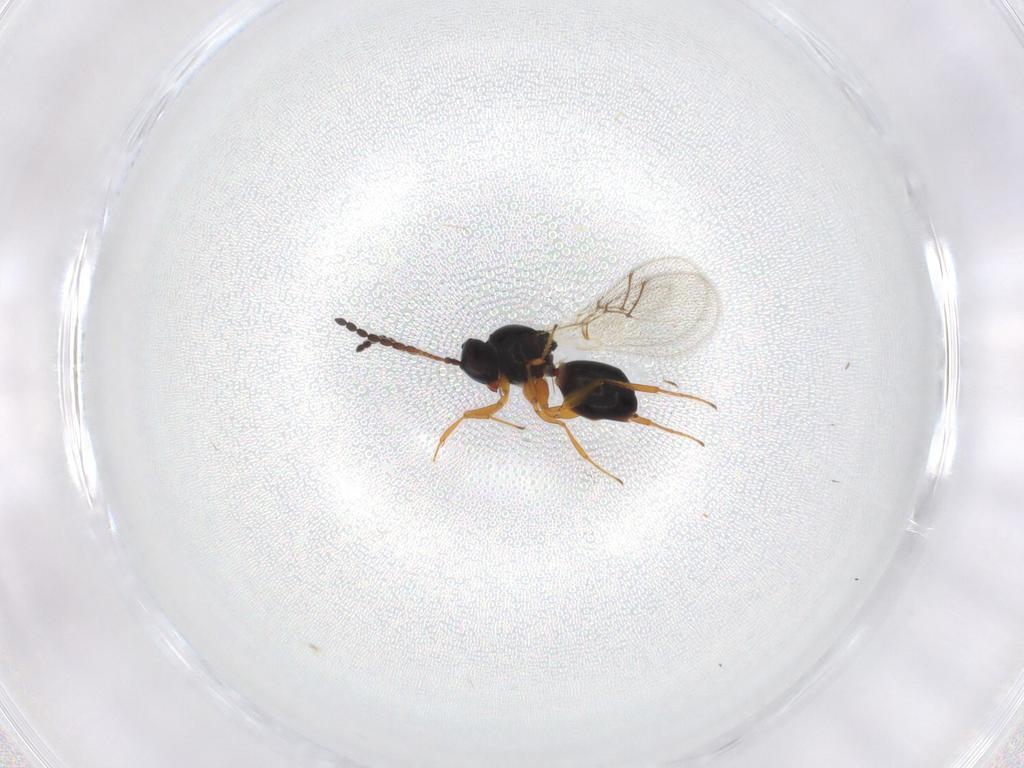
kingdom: Animalia
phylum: Arthropoda
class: Insecta
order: Hymenoptera
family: Figitidae
